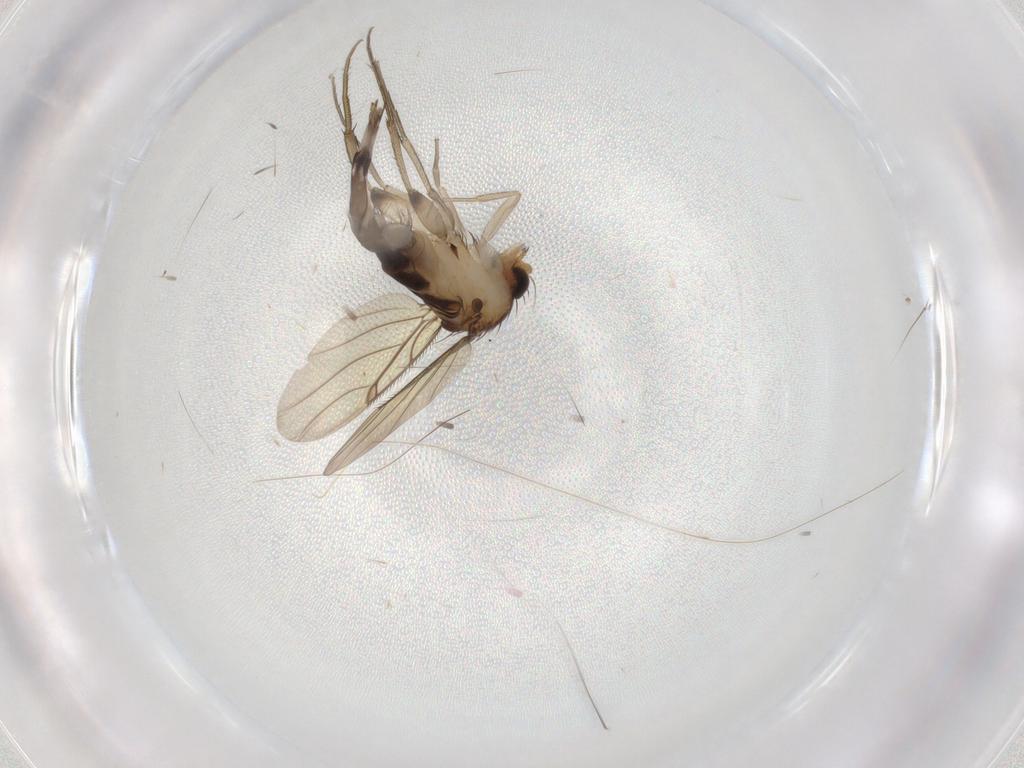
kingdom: Animalia
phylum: Arthropoda
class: Insecta
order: Diptera
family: Phoridae
